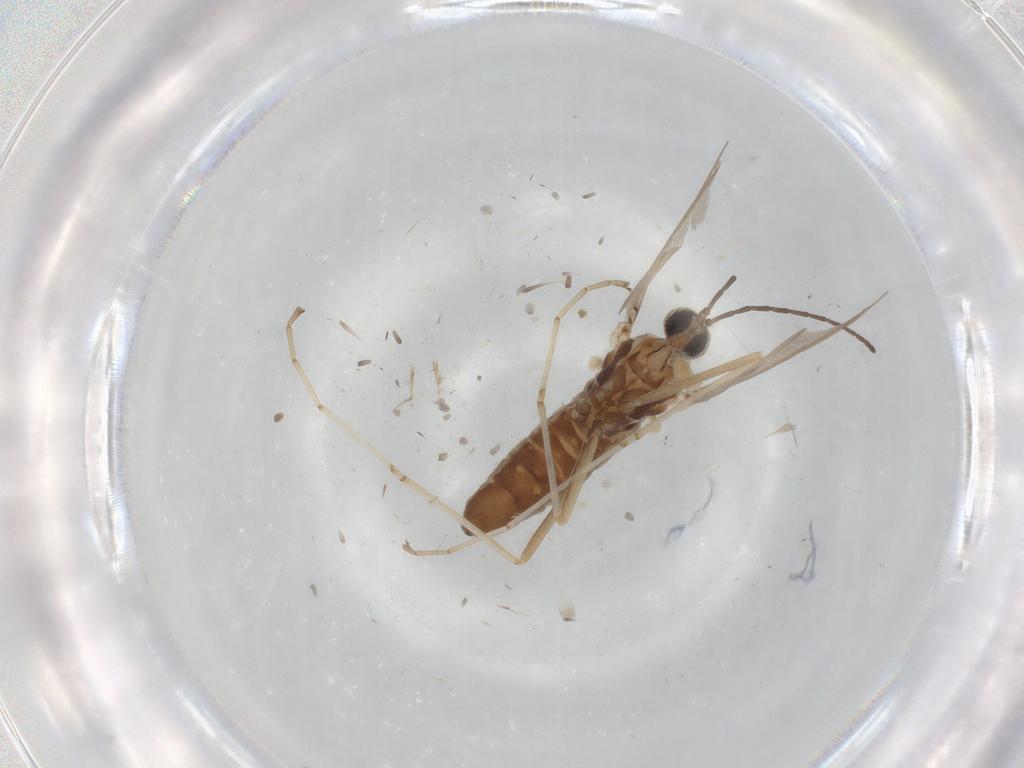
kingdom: Animalia
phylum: Arthropoda
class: Insecta
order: Diptera
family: Cecidomyiidae
